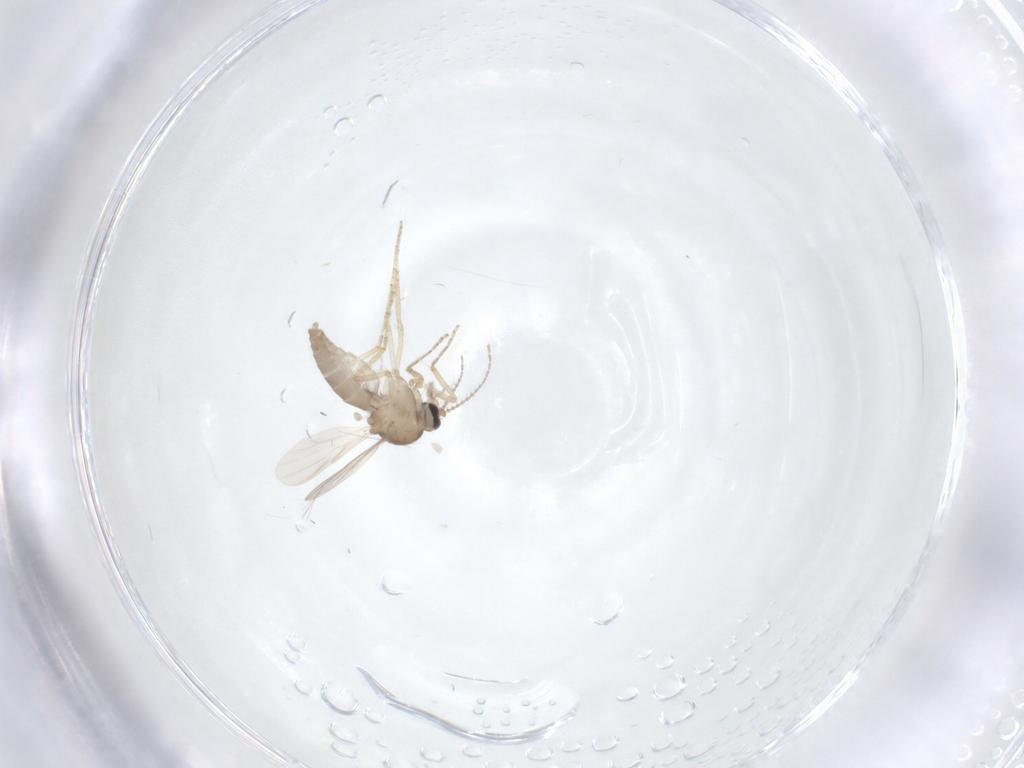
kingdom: Animalia
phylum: Arthropoda
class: Insecta
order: Diptera
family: Ceratopogonidae
